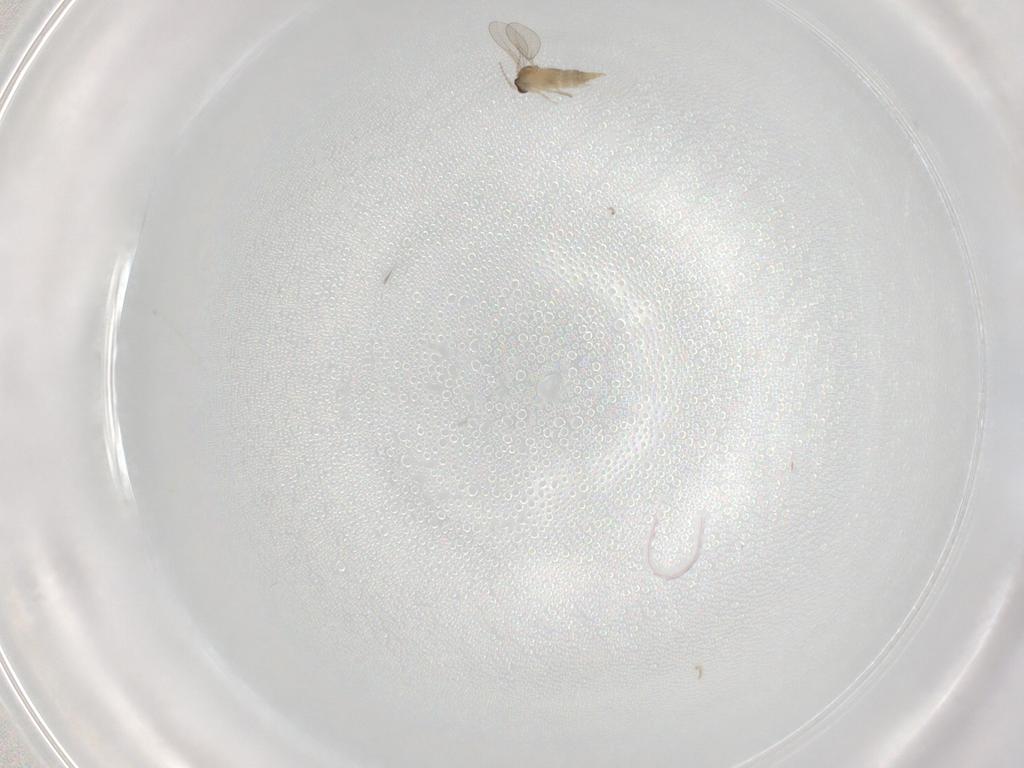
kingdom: Animalia
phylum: Arthropoda
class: Insecta
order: Diptera
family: Cecidomyiidae
